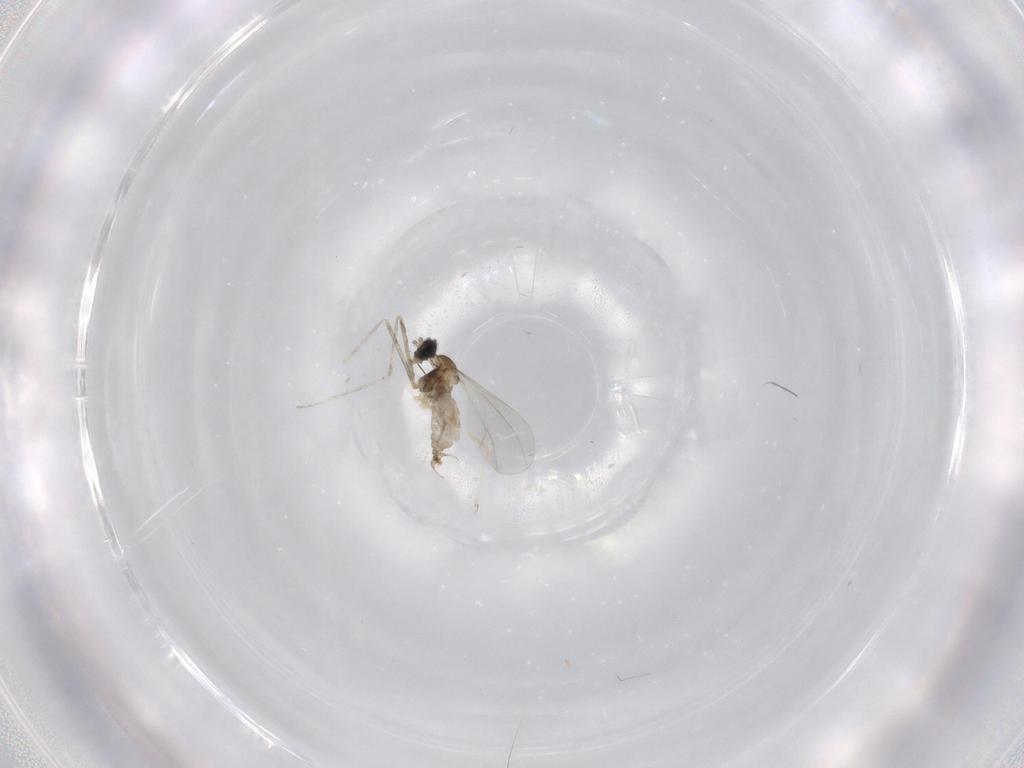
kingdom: Animalia
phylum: Arthropoda
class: Insecta
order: Diptera
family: Cecidomyiidae
